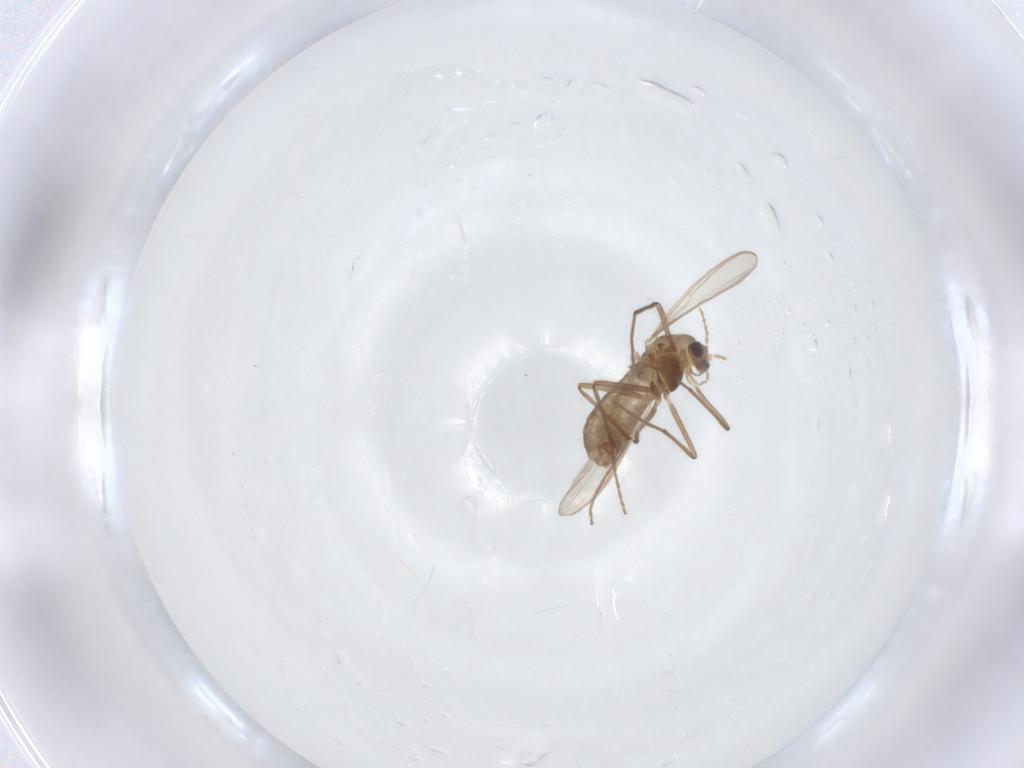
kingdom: Animalia
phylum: Arthropoda
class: Insecta
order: Diptera
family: Chironomidae
